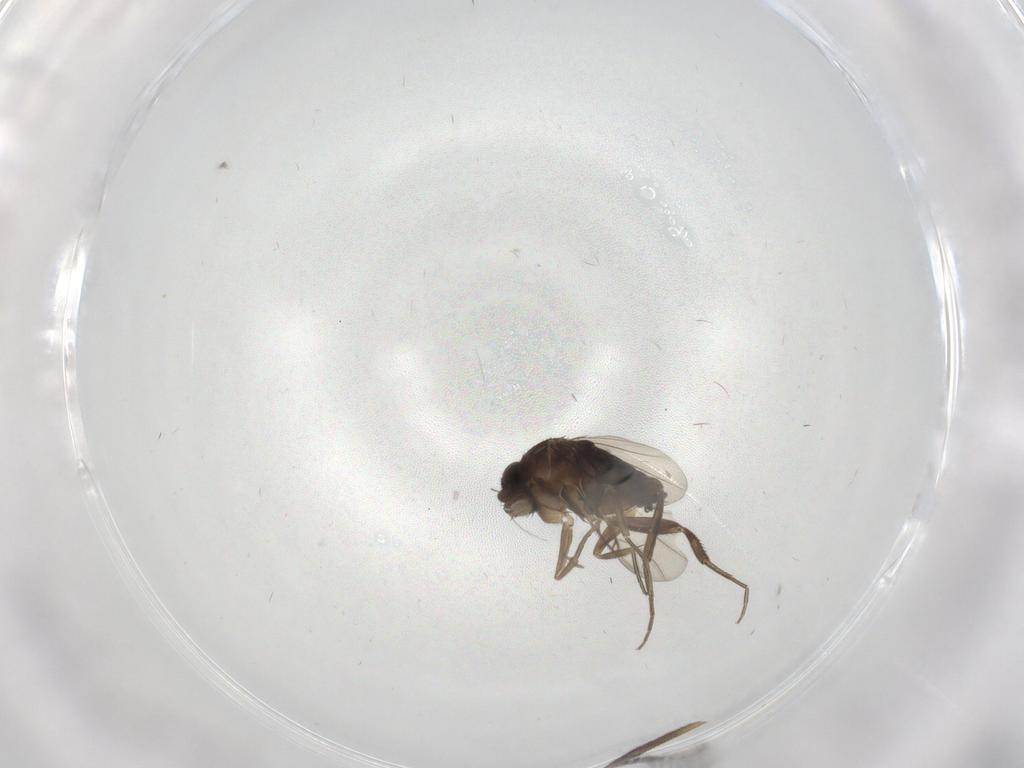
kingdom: Animalia
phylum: Arthropoda
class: Insecta
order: Diptera
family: Phoridae
